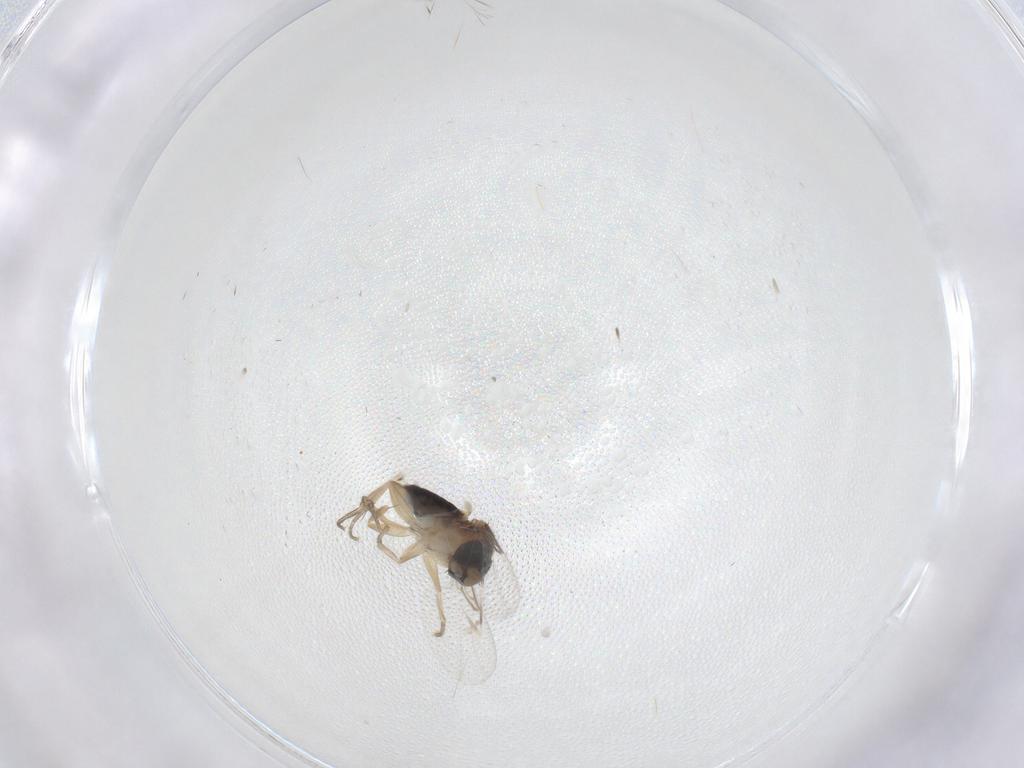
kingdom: Animalia
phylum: Arthropoda
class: Insecta
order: Diptera
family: Phoridae
